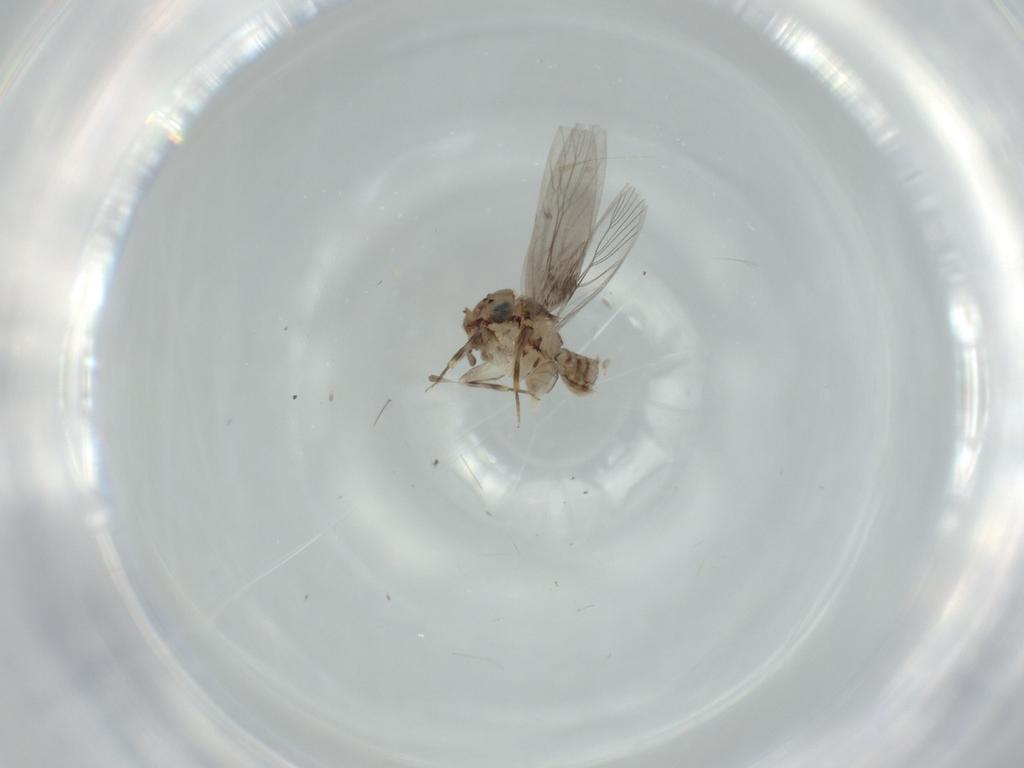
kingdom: Animalia
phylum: Arthropoda
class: Insecta
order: Psocodea
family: Lepidopsocidae
